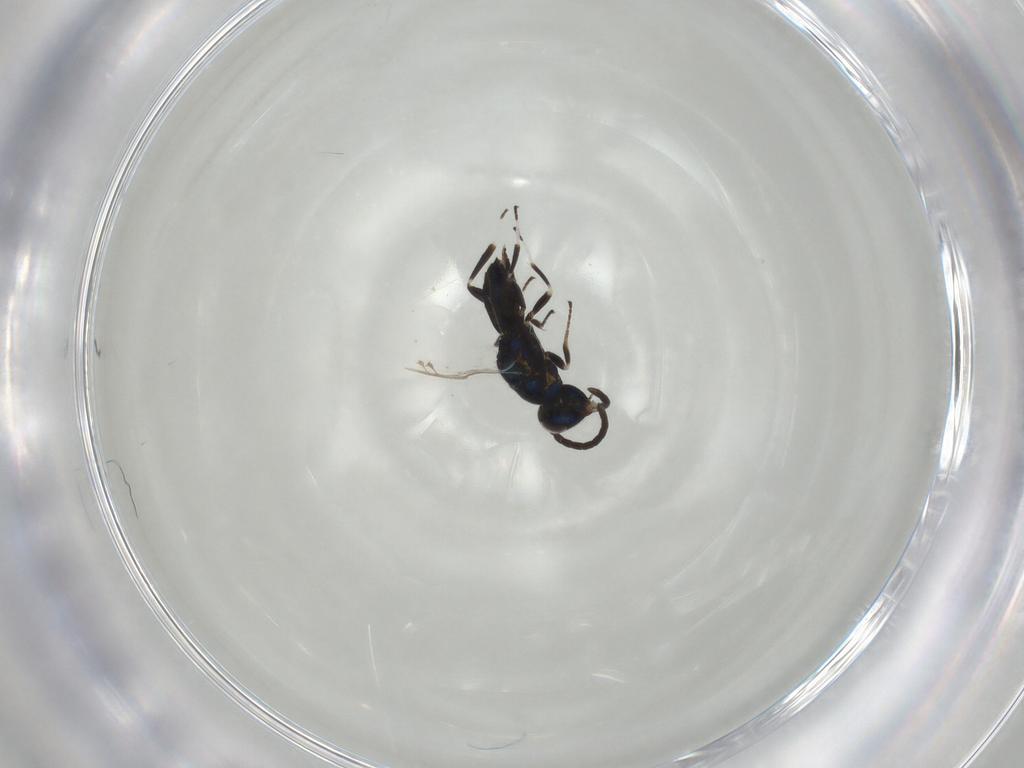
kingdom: Animalia
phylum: Arthropoda
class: Insecta
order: Hymenoptera
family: Eupelmidae
